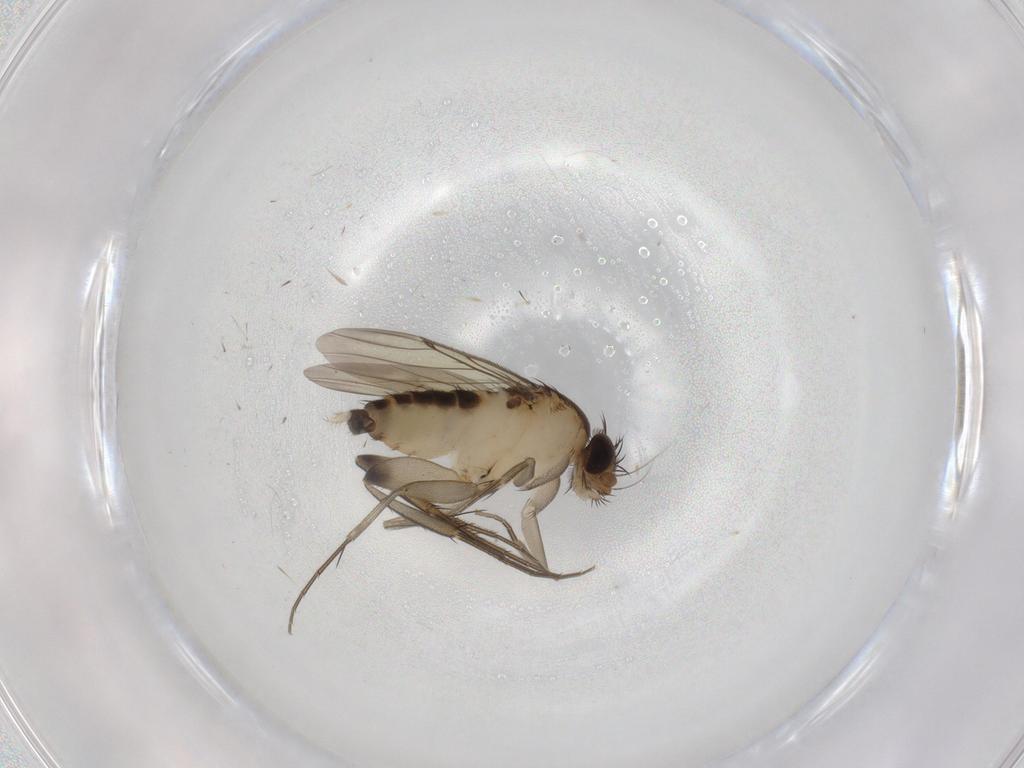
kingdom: Animalia
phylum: Arthropoda
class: Insecta
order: Diptera
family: Phoridae
